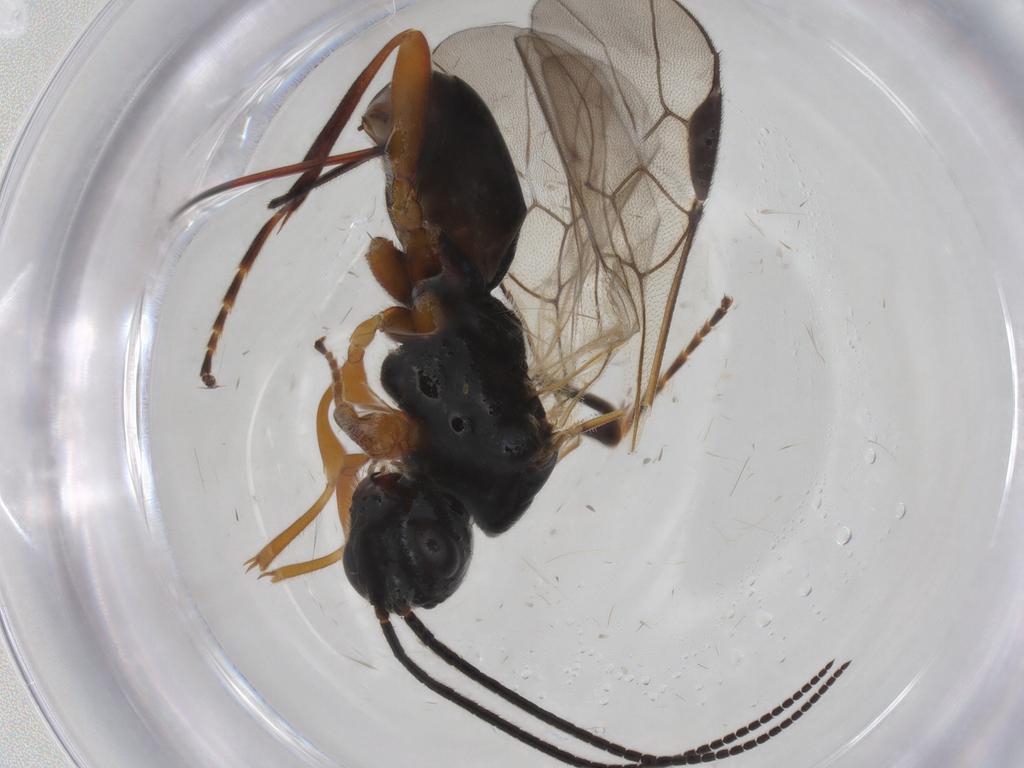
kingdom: Animalia
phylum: Arthropoda
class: Insecta
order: Hymenoptera
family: Braconidae
